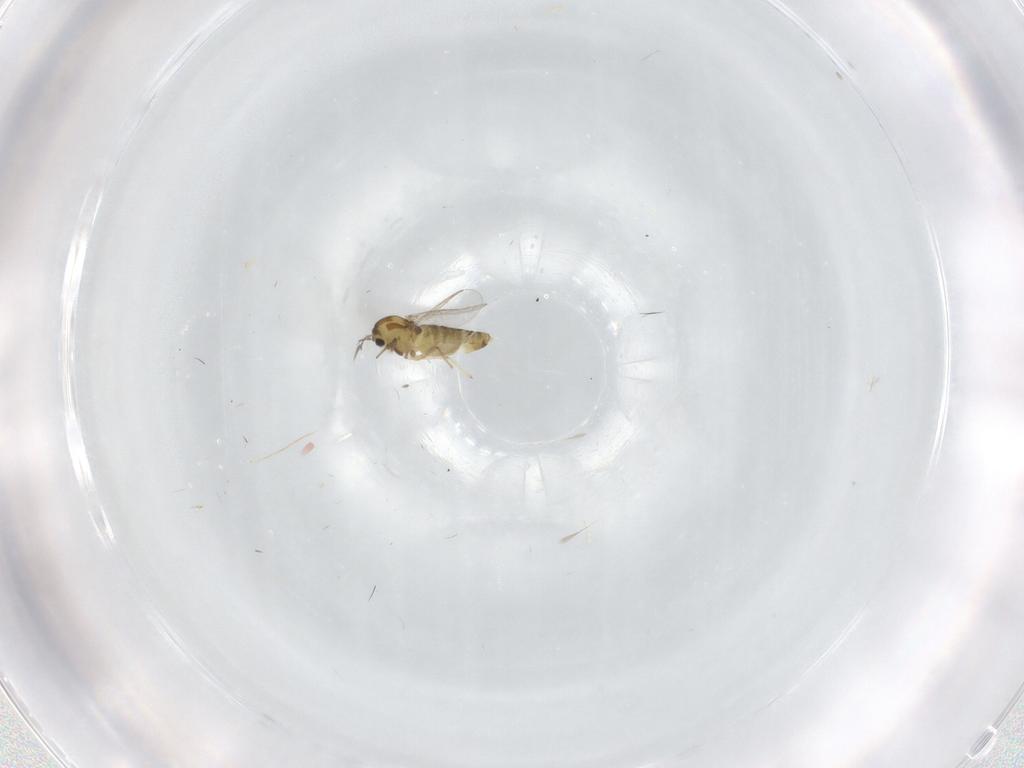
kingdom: Animalia
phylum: Arthropoda
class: Insecta
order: Diptera
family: Chironomidae
